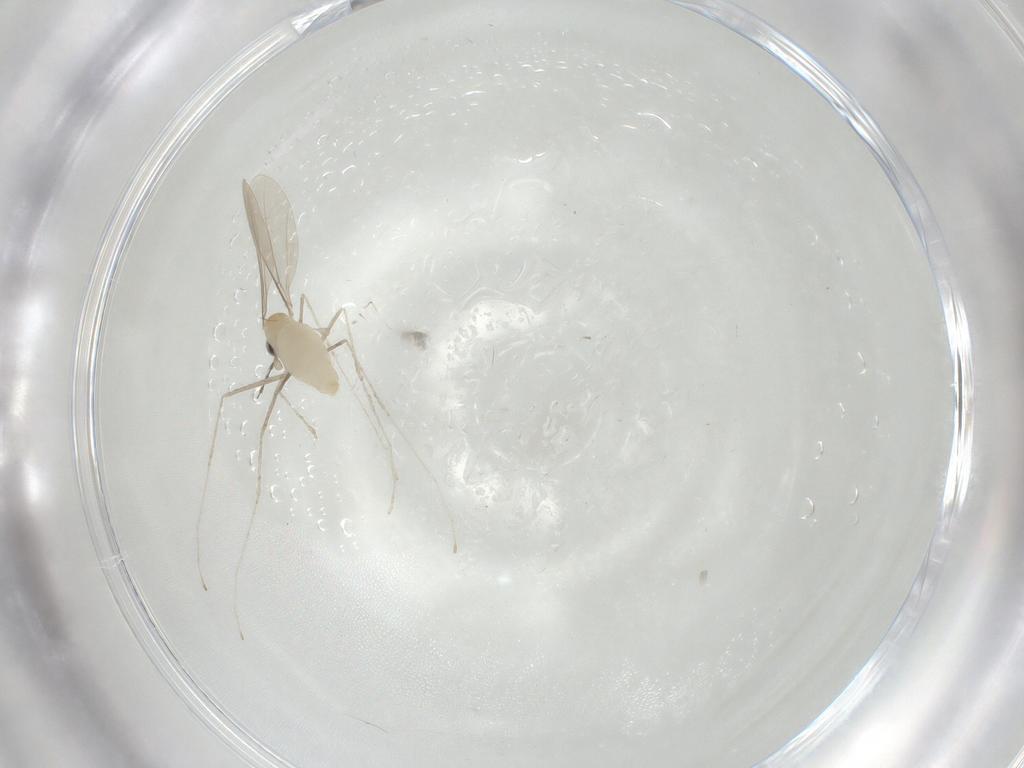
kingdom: Animalia
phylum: Arthropoda
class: Insecta
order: Diptera
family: Cecidomyiidae
